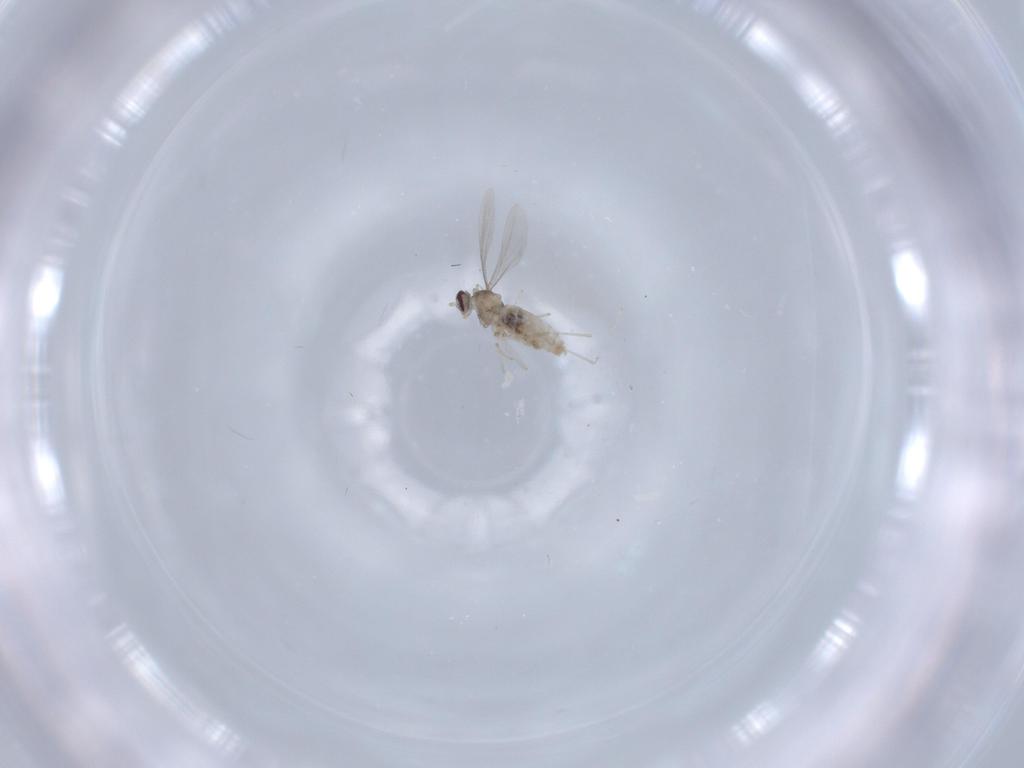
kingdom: Animalia
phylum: Arthropoda
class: Insecta
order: Diptera
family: Cecidomyiidae
